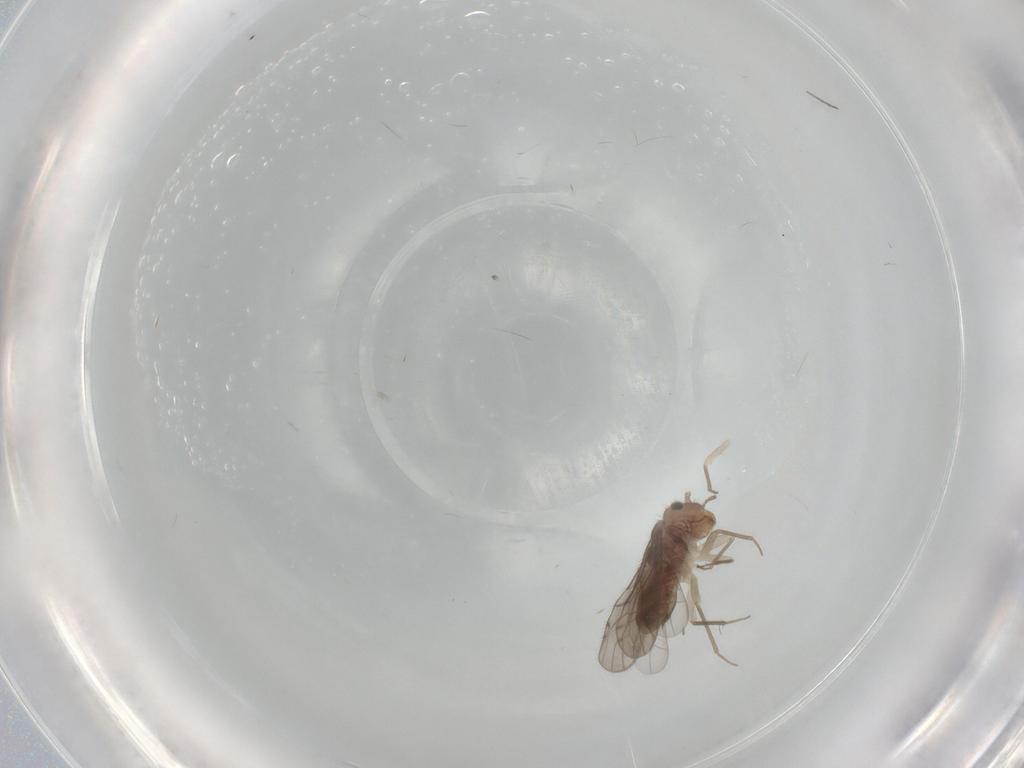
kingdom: Animalia
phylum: Arthropoda
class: Insecta
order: Psocodea
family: Ectopsocidae
